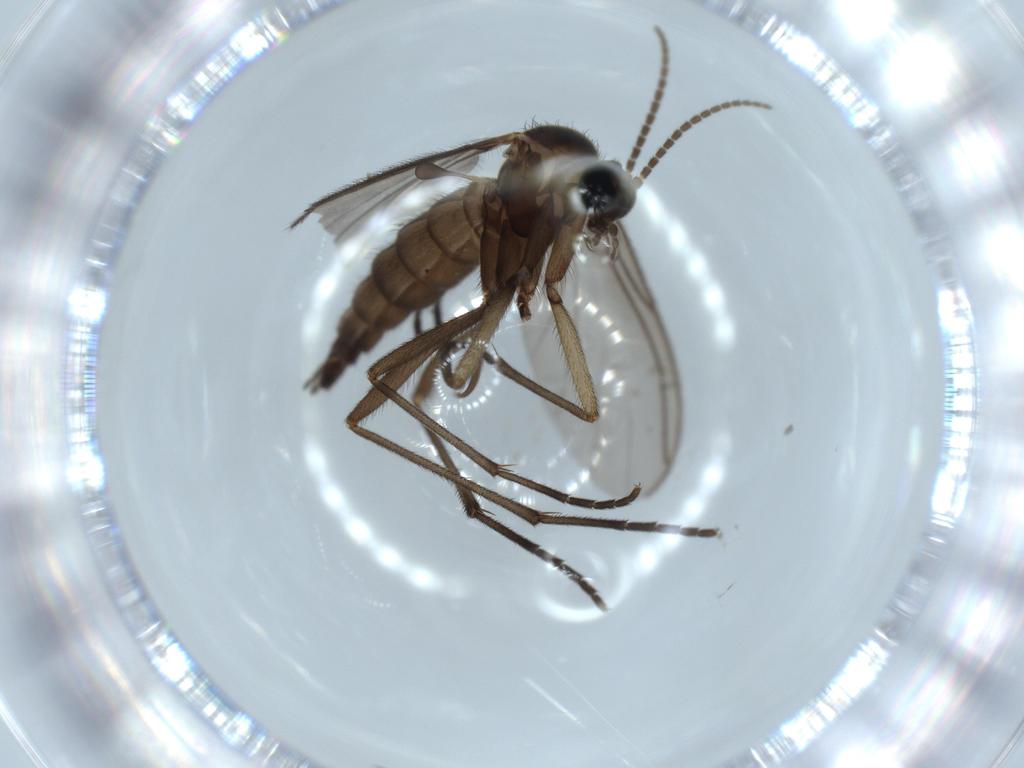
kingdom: Animalia
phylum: Arthropoda
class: Insecta
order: Diptera
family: Sciaridae
